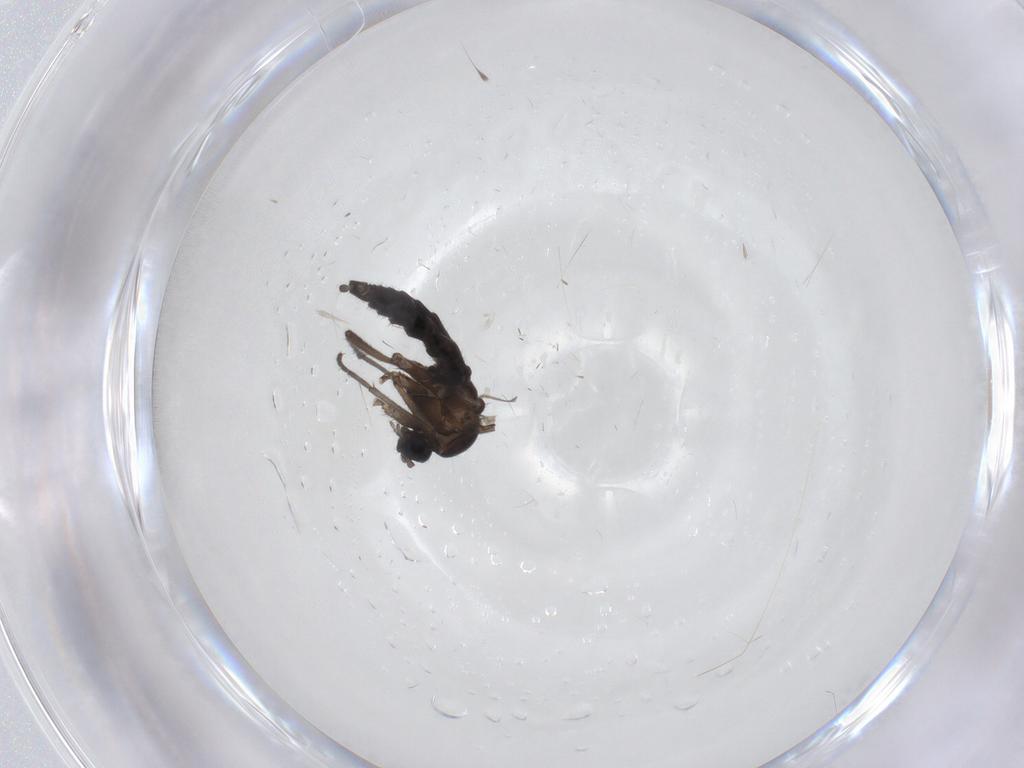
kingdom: Animalia
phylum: Arthropoda
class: Insecta
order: Diptera
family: Sciaridae
